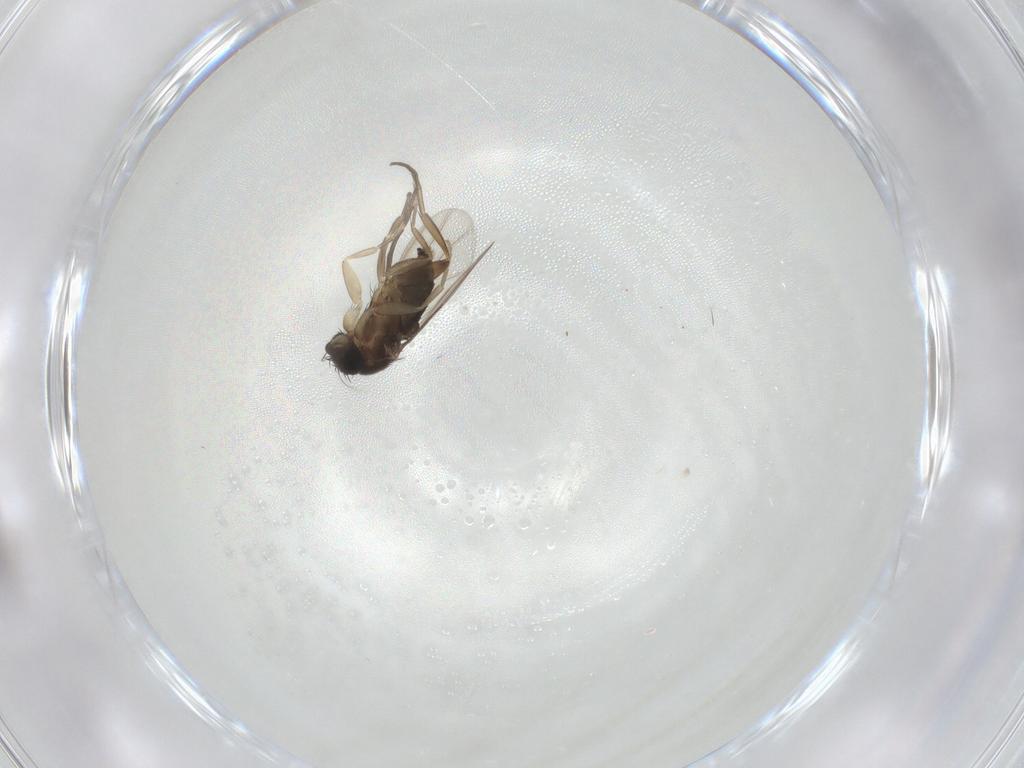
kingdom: Animalia
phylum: Arthropoda
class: Insecta
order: Diptera
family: Phoridae
